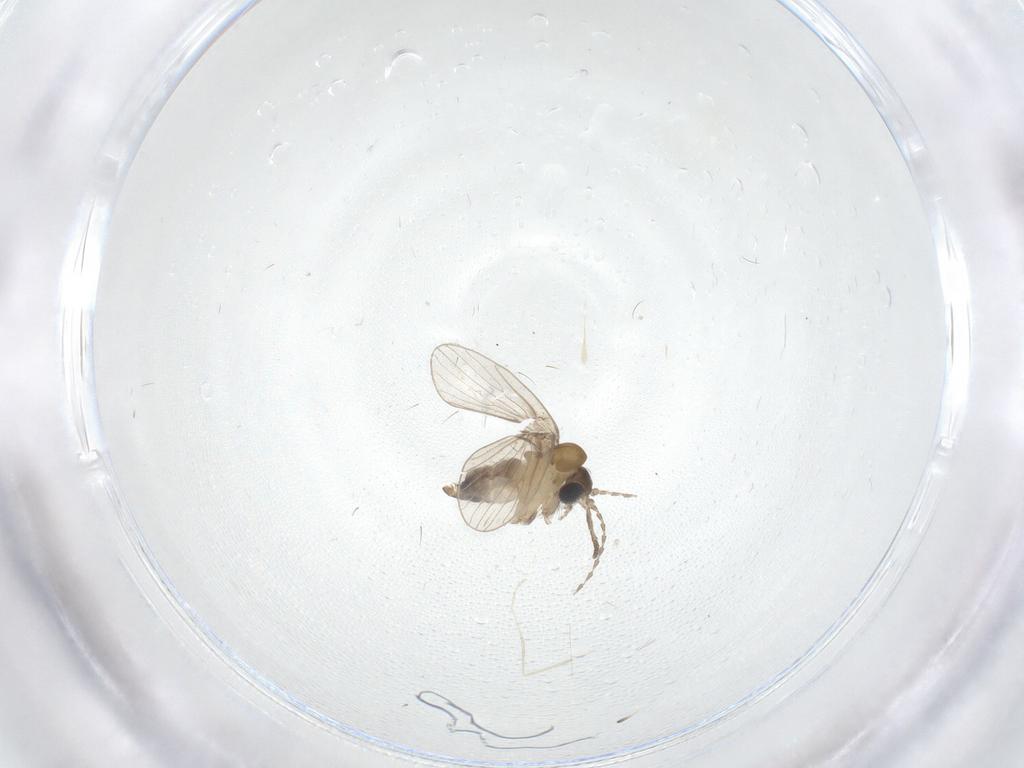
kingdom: Animalia
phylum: Arthropoda
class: Insecta
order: Diptera
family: Psychodidae
